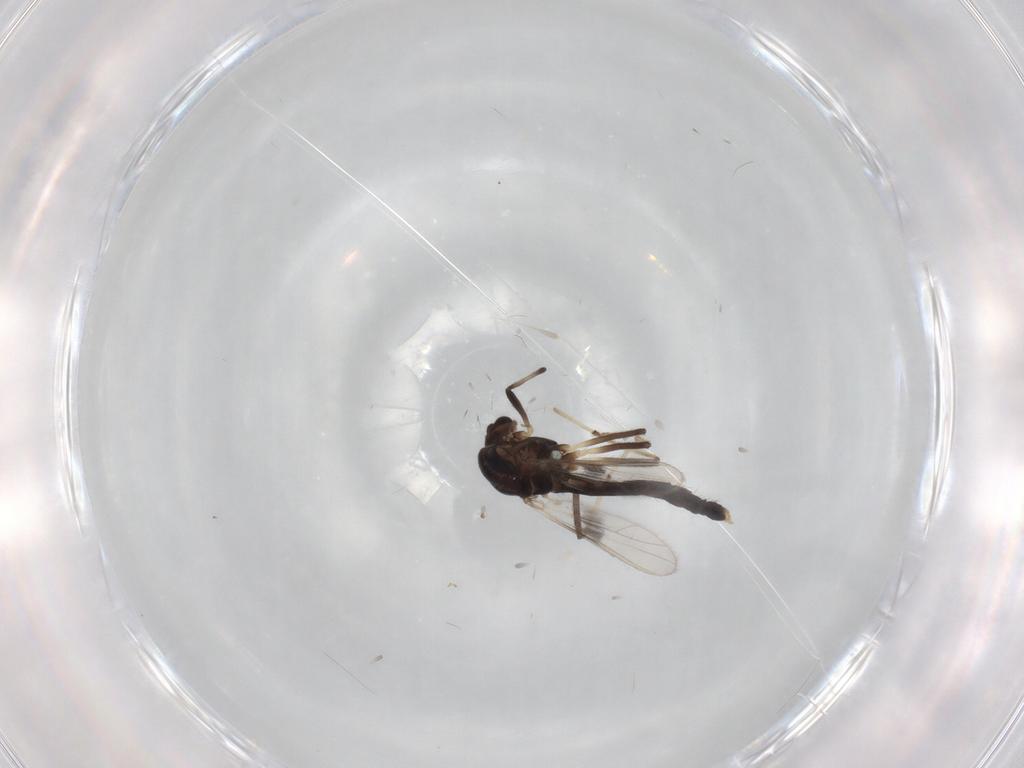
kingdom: Animalia
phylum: Arthropoda
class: Insecta
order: Diptera
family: Chironomidae
